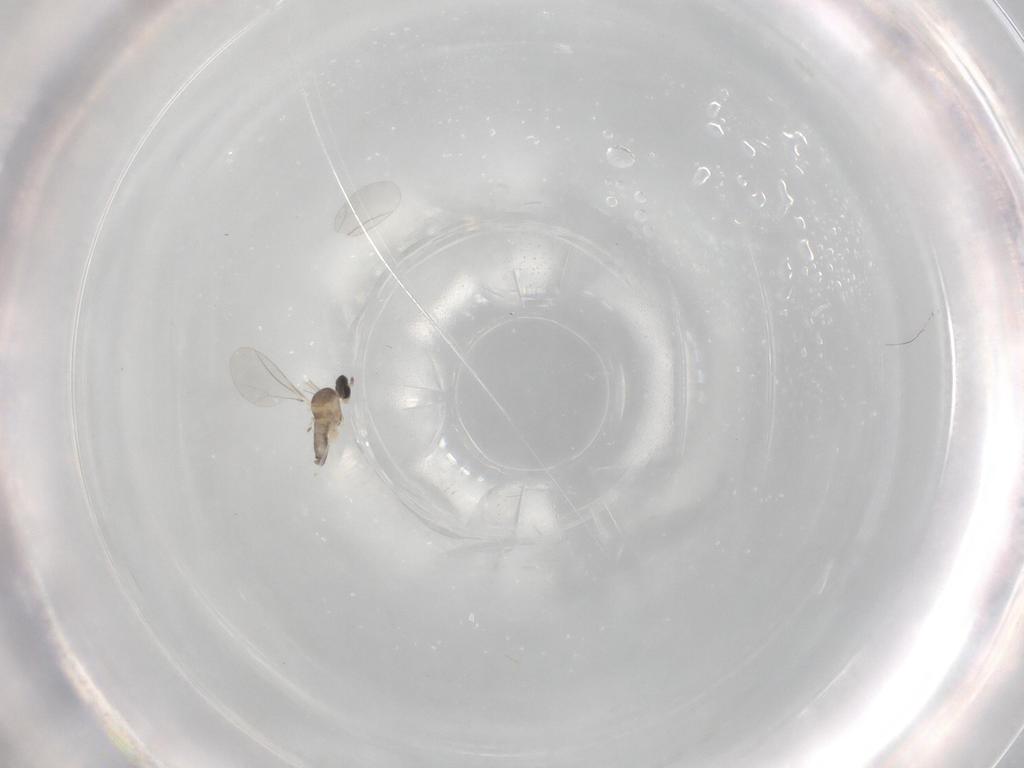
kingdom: Animalia
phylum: Arthropoda
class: Insecta
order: Diptera
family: Cecidomyiidae
